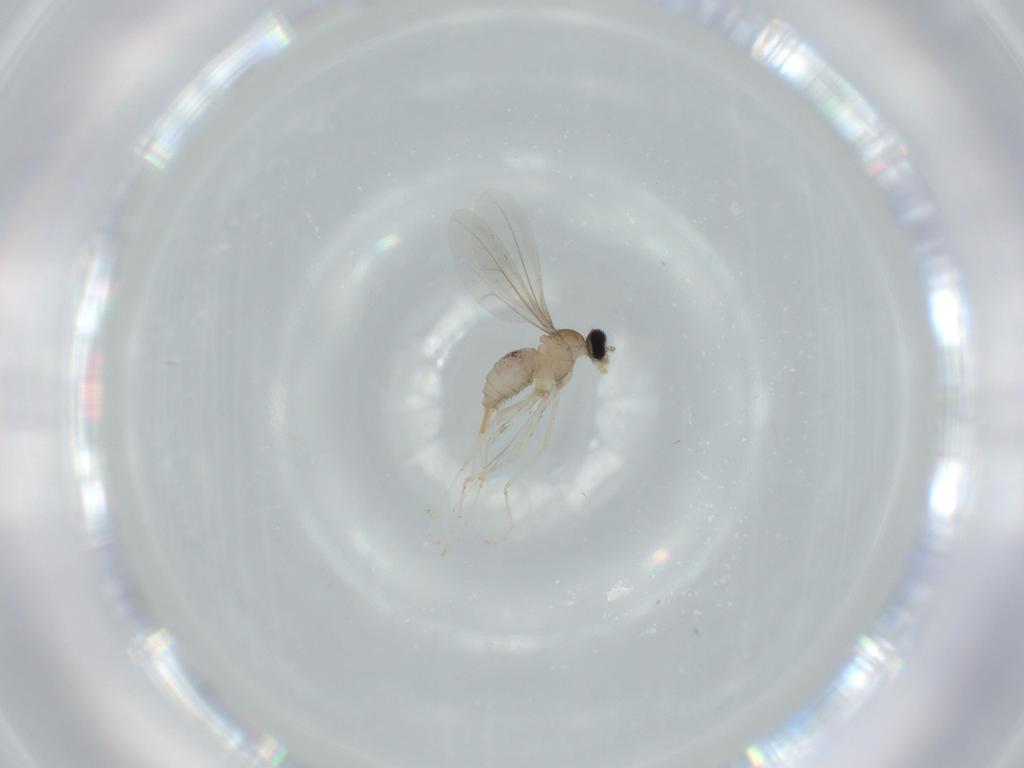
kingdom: Animalia
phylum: Arthropoda
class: Insecta
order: Diptera
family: Cecidomyiidae
